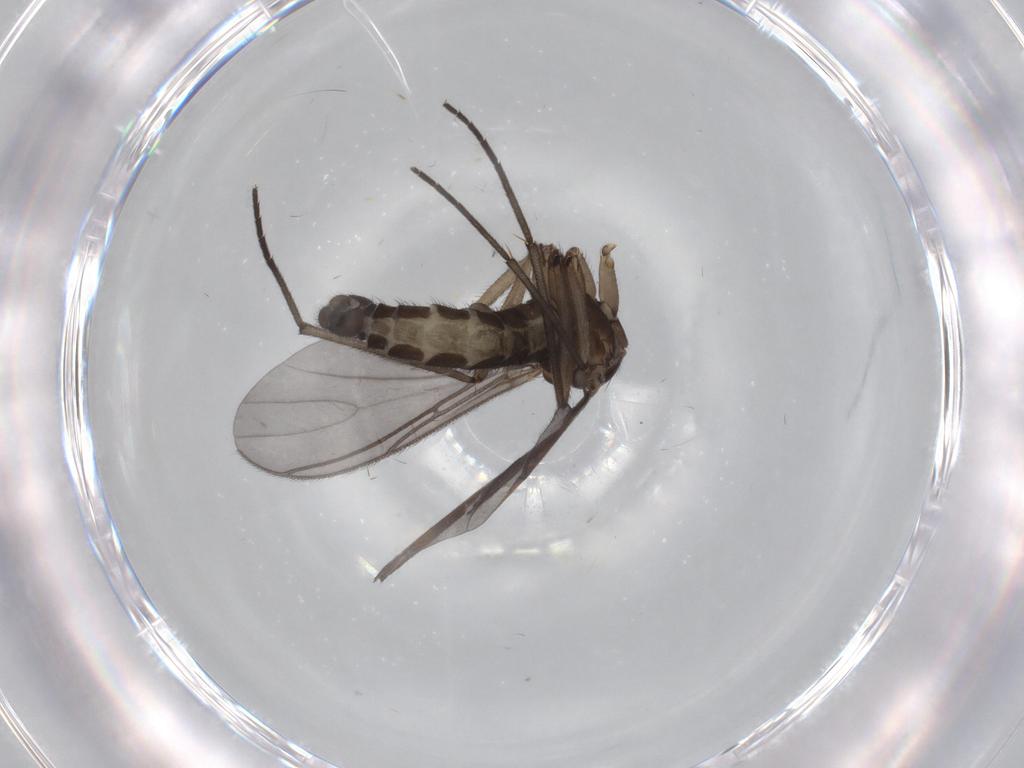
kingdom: Animalia
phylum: Arthropoda
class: Insecta
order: Diptera
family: Sciaridae
